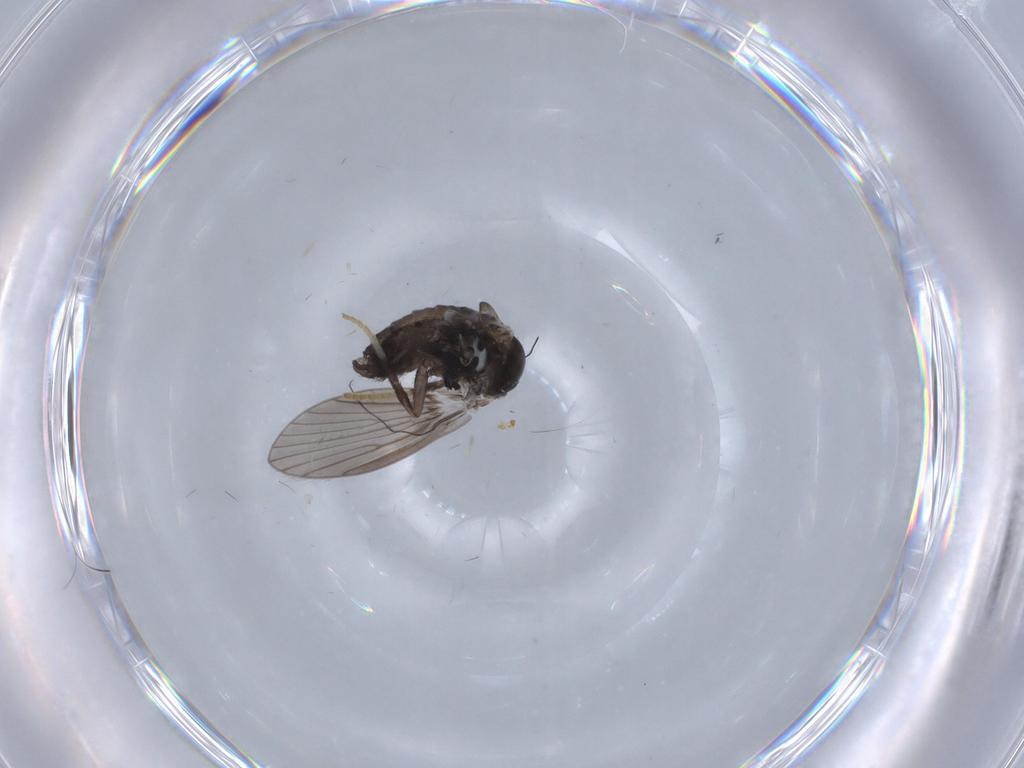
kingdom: Animalia
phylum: Arthropoda
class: Insecta
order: Diptera
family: Psychodidae
